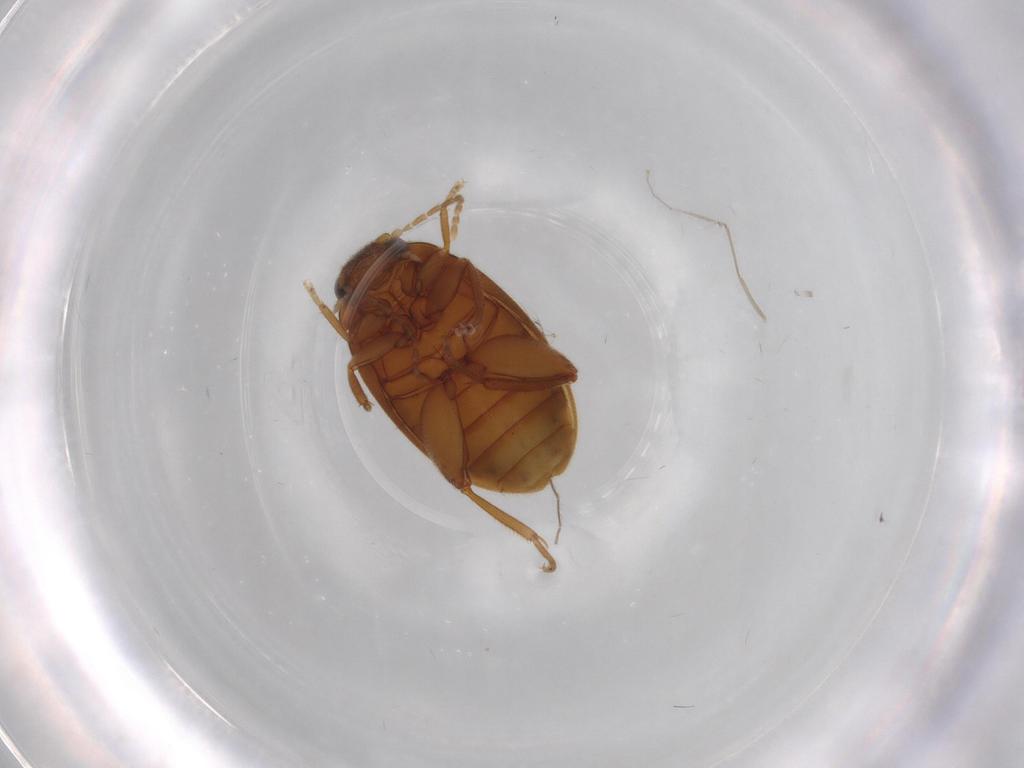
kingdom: Animalia
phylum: Arthropoda
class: Insecta
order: Coleoptera
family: Scirtidae
